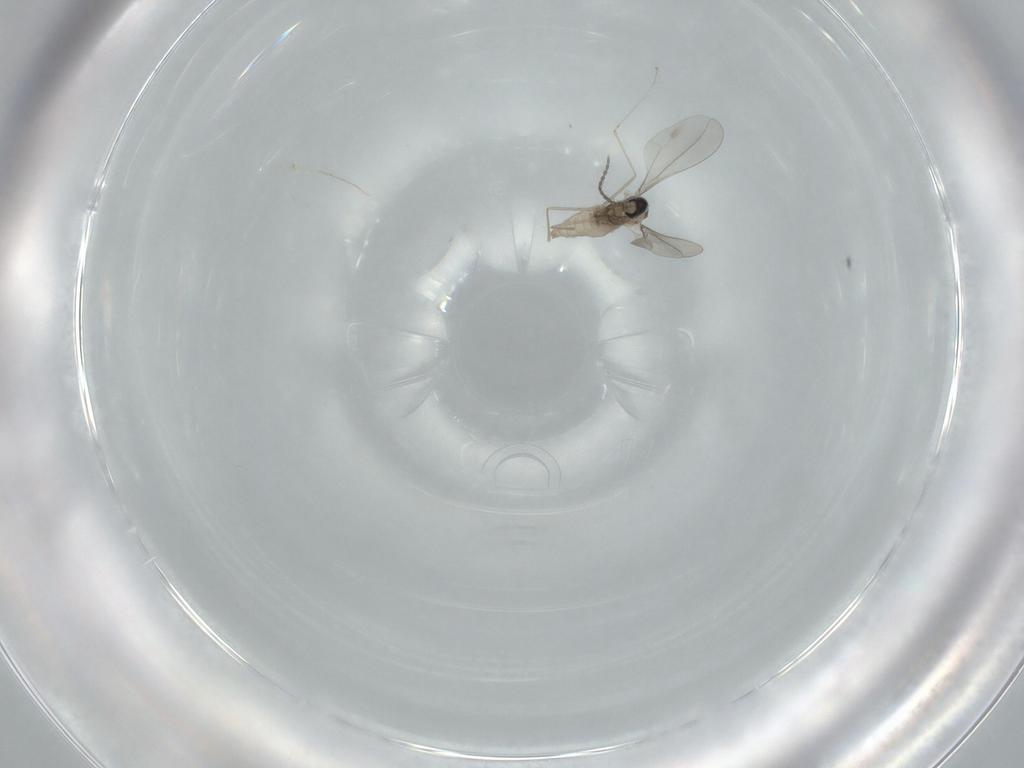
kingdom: Animalia
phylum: Arthropoda
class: Insecta
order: Diptera
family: Cecidomyiidae
